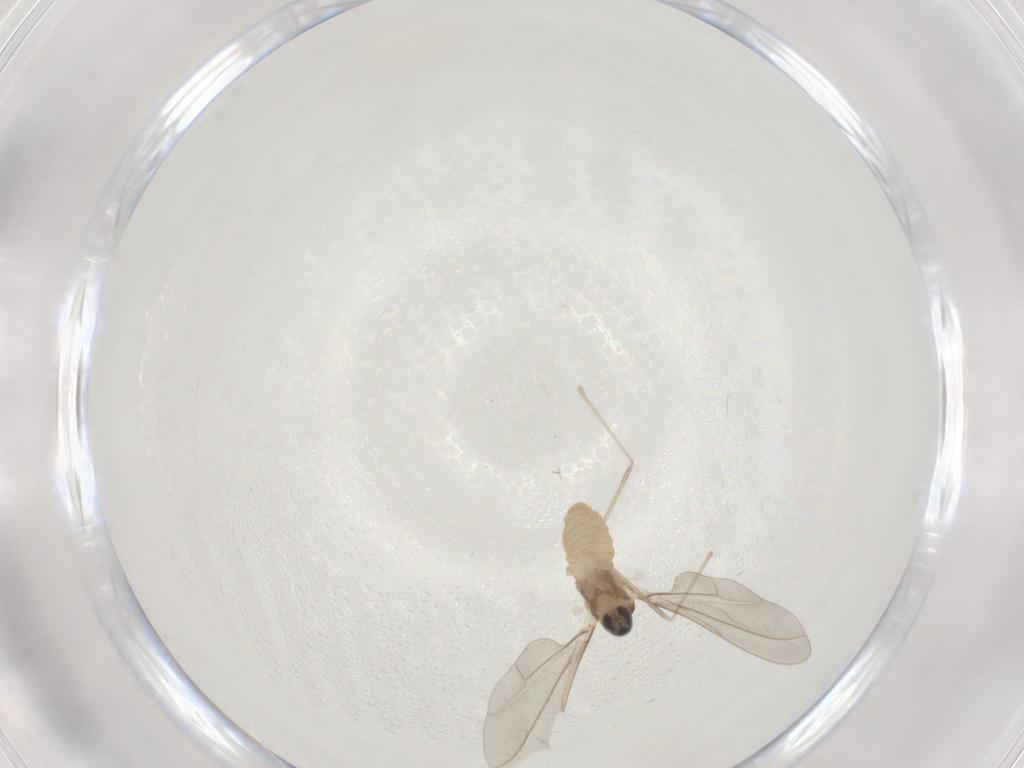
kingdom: Animalia
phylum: Arthropoda
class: Insecta
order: Diptera
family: Cecidomyiidae
